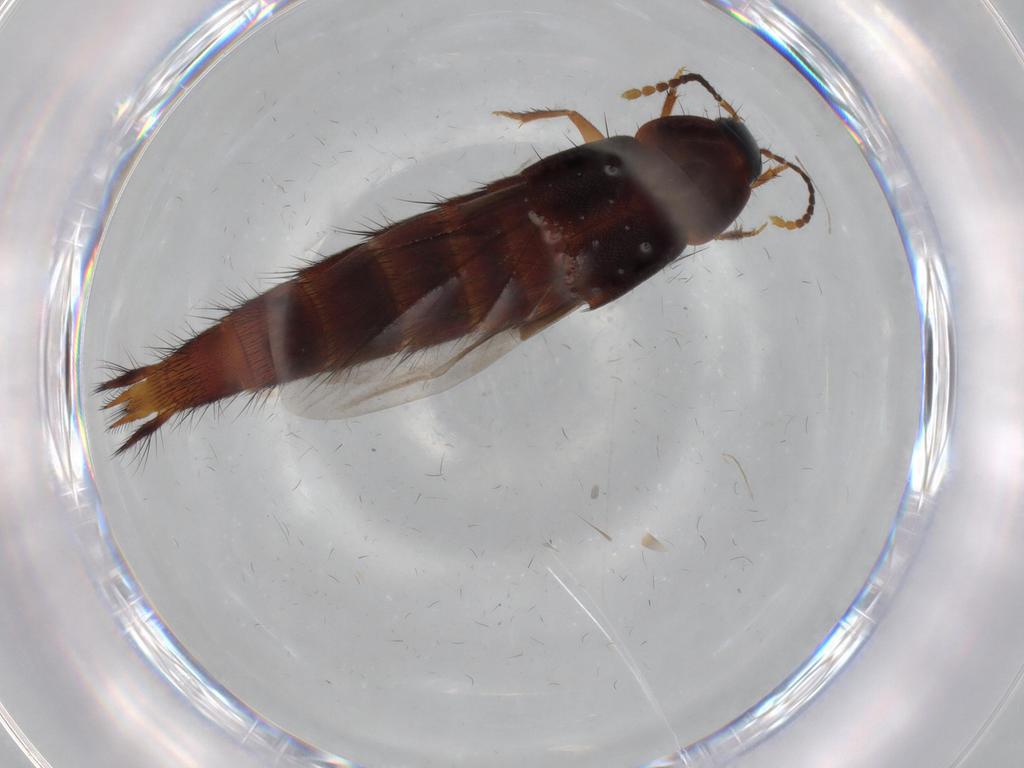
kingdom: Animalia
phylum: Arthropoda
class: Insecta
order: Coleoptera
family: Staphylinidae
